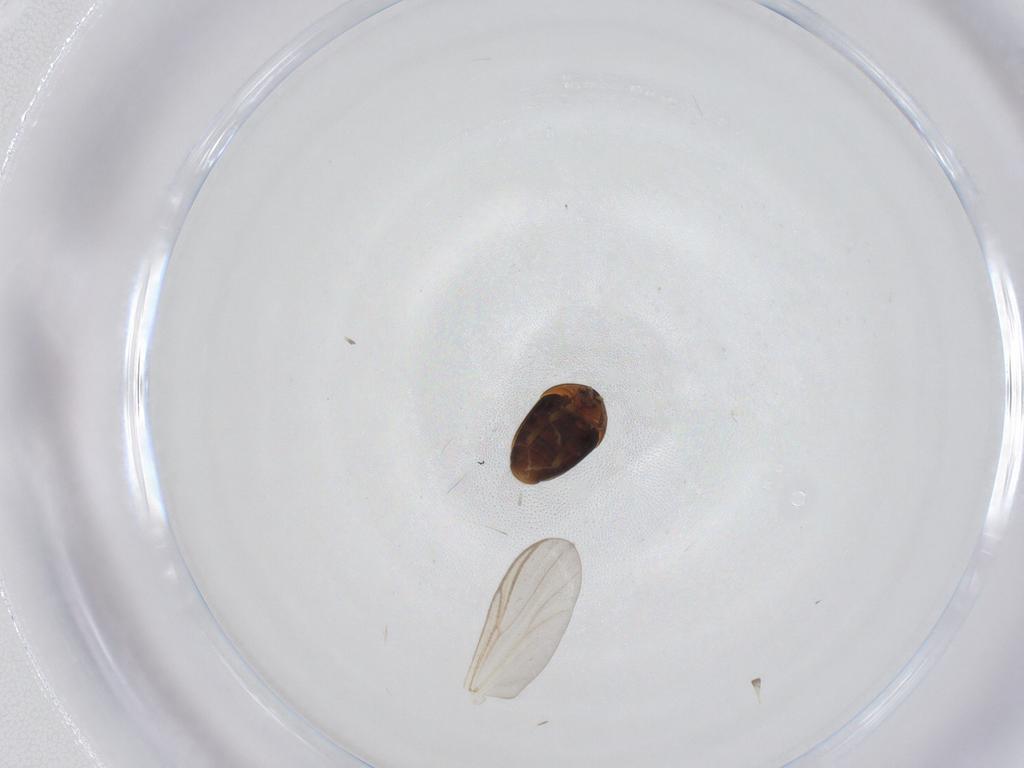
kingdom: Animalia
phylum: Arthropoda
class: Insecta
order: Coleoptera
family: Corylophidae
